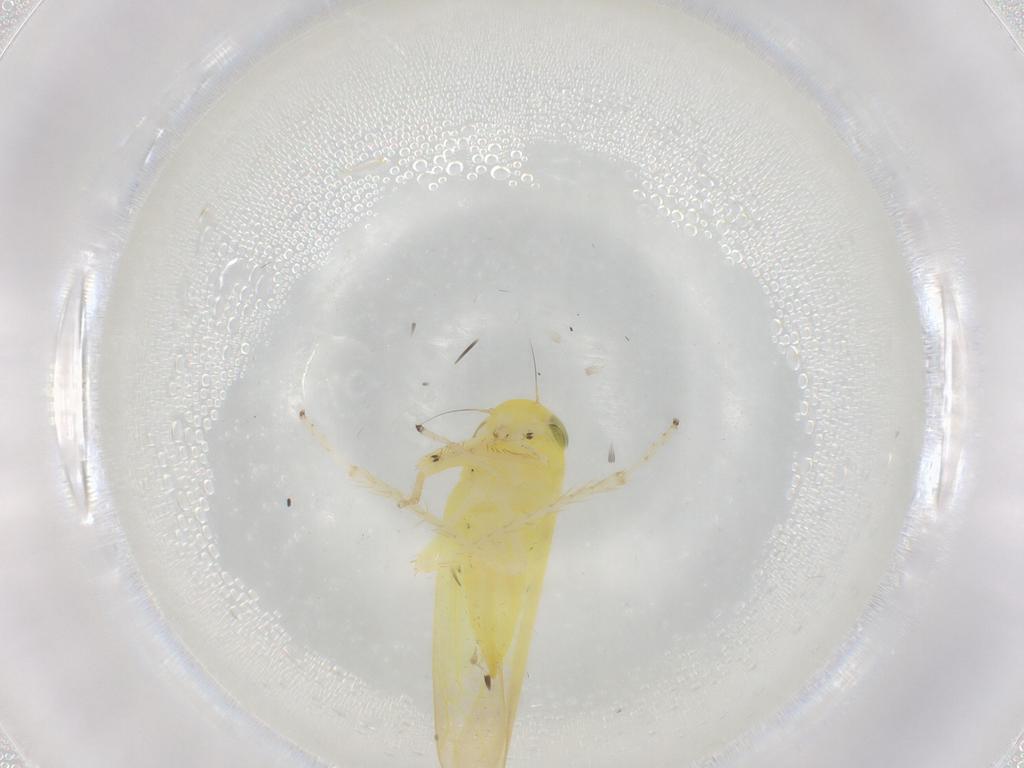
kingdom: Animalia
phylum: Arthropoda
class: Insecta
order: Hemiptera
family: Cicadellidae
